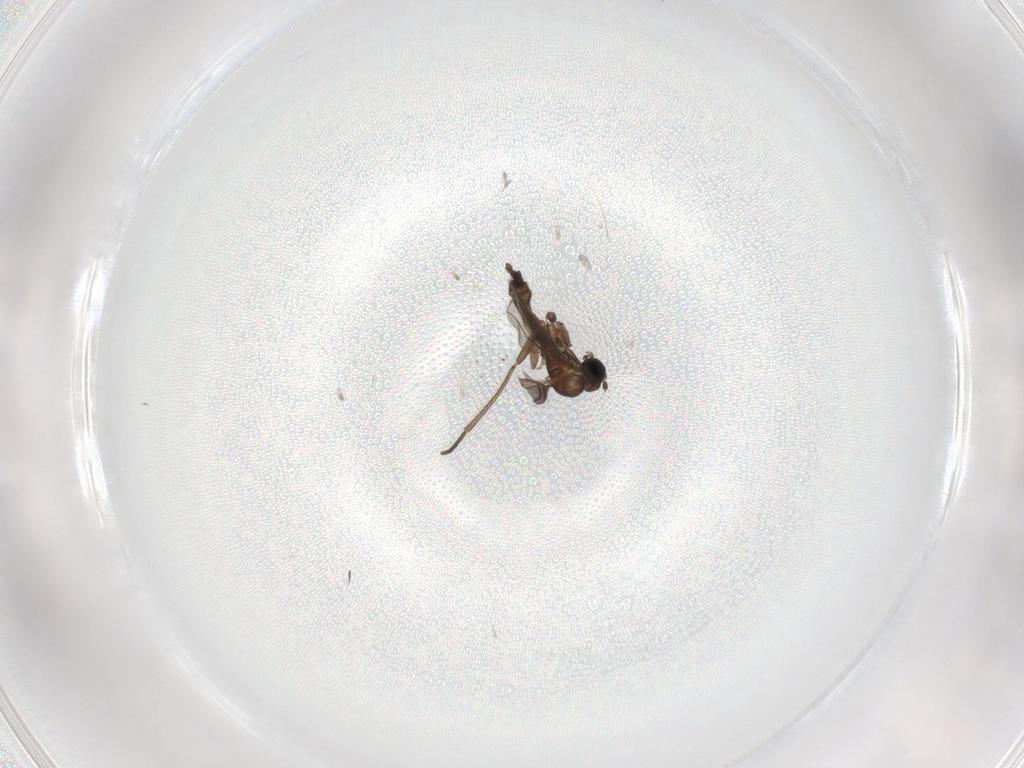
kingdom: Animalia
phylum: Arthropoda
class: Insecta
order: Diptera
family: Sciaridae
